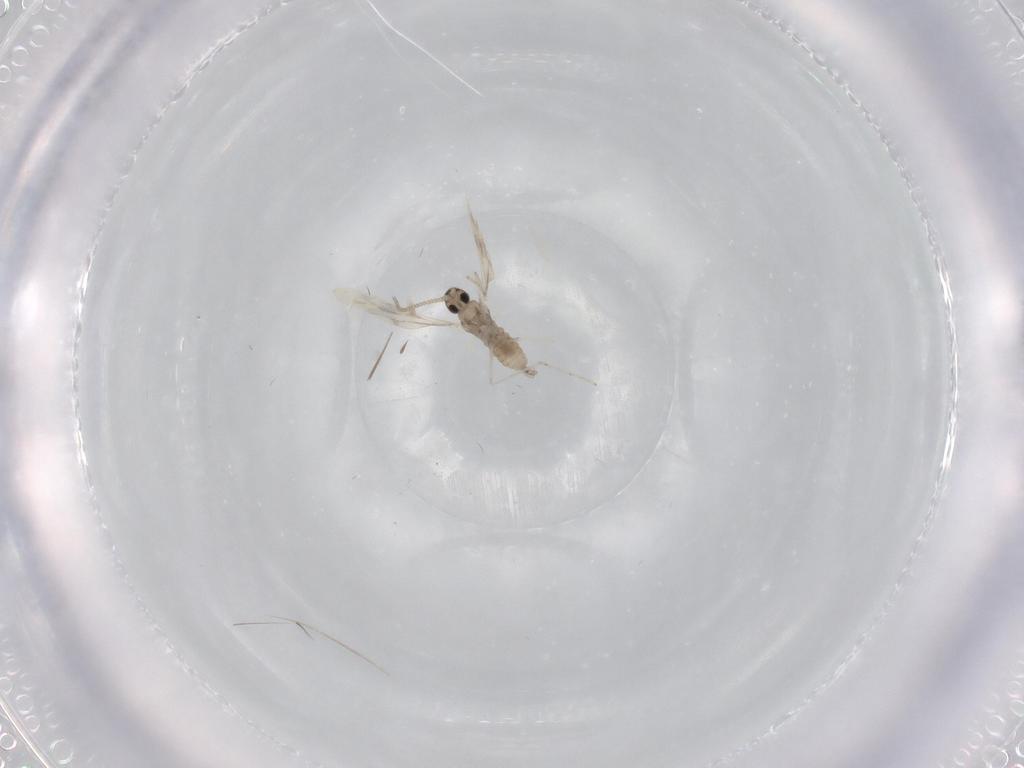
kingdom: Animalia
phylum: Arthropoda
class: Insecta
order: Diptera
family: Cecidomyiidae
